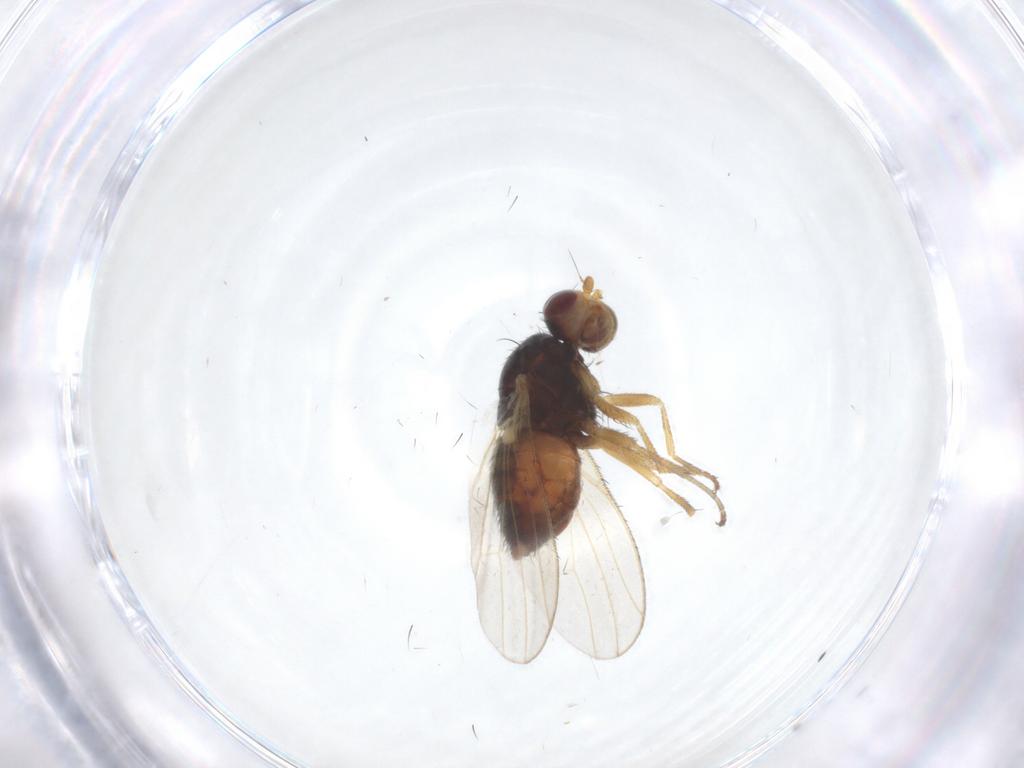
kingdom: Animalia
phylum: Arthropoda
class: Insecta
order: Diptera
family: Heleomyzidae
